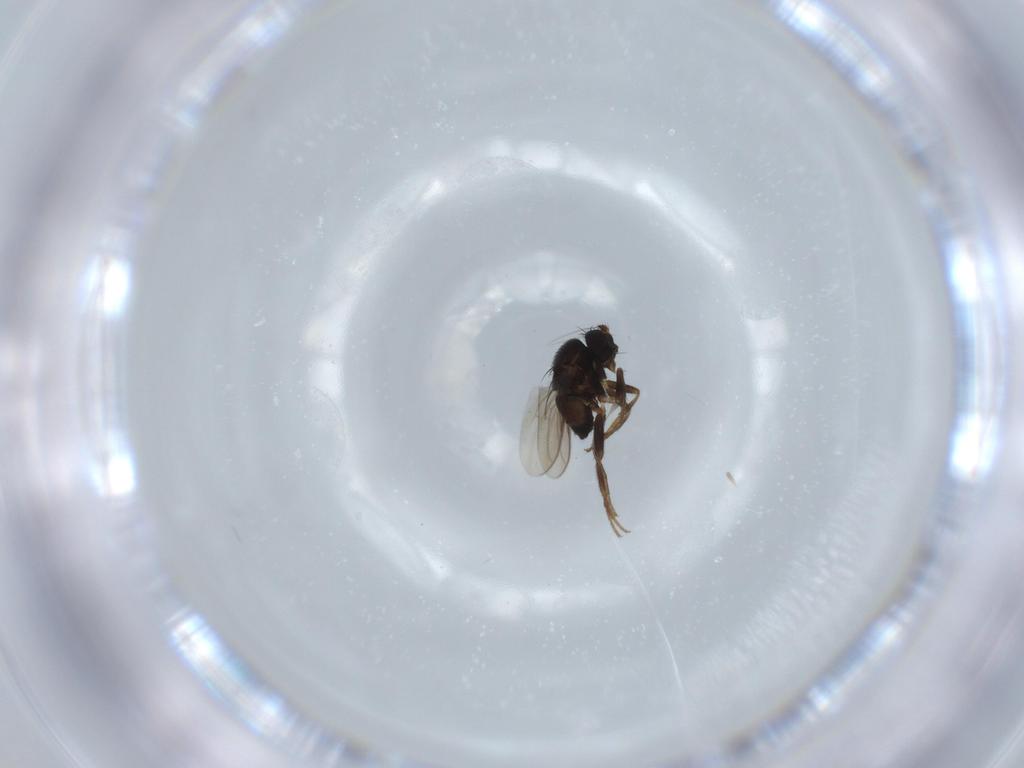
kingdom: Animalia
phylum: Arthropoda
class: Insecta
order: Diptera
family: Sphaeroceridae
